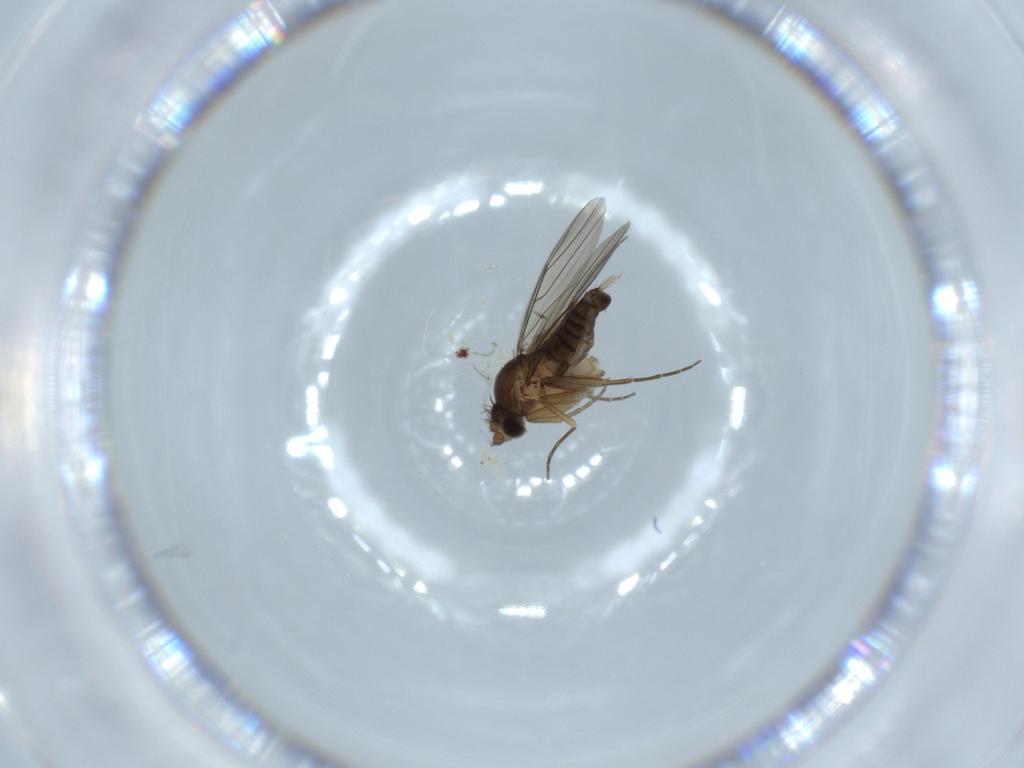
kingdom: Animalia
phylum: Arthropoda
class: Insecta
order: Diptera
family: Phoridae
